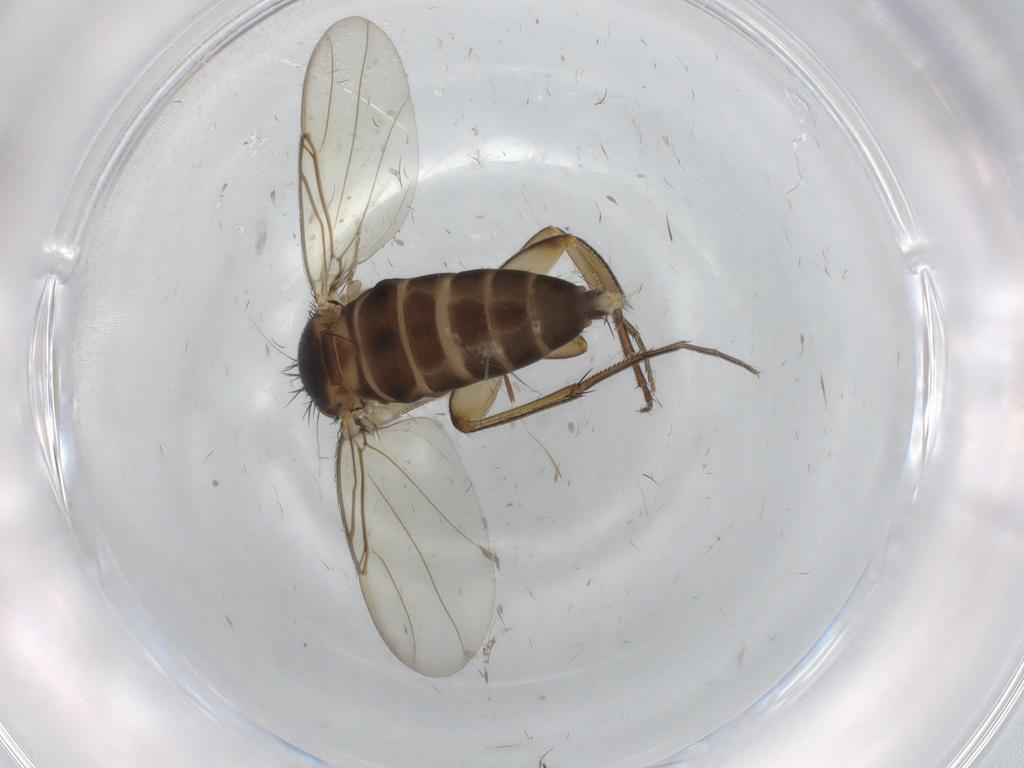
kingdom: Animalia
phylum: Arthropoda
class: Insecta
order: Diptera
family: Phoridae
